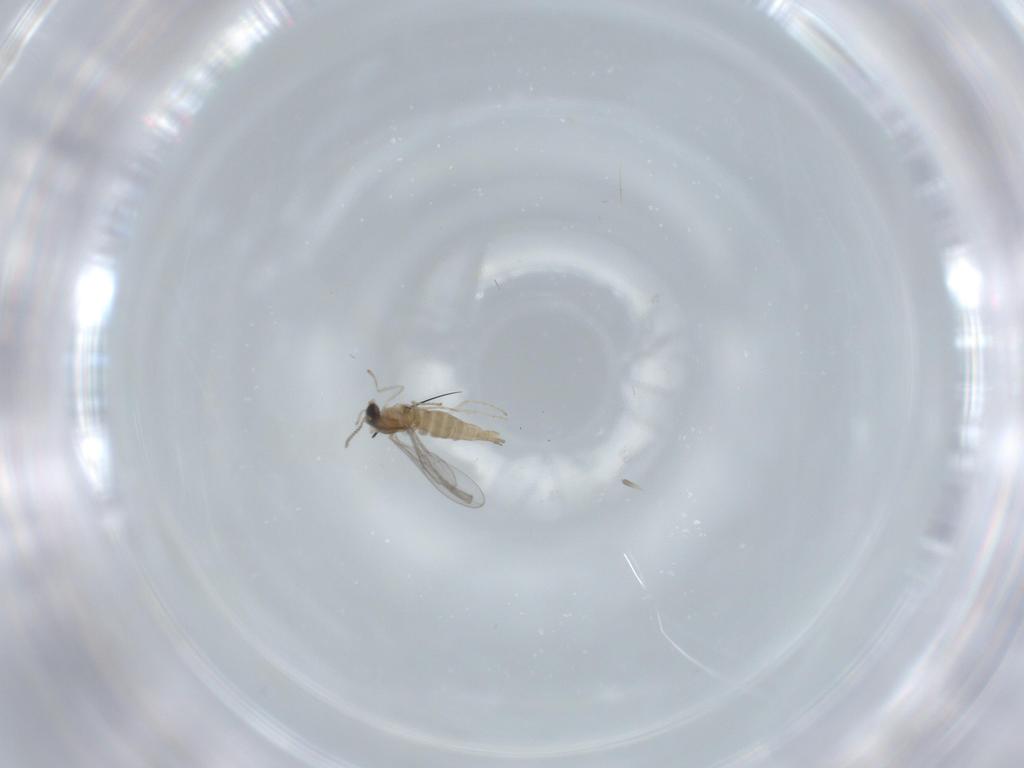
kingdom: Animalia
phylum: Arthropoda
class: Insecta
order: Diptera
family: Cecidomyiidae
